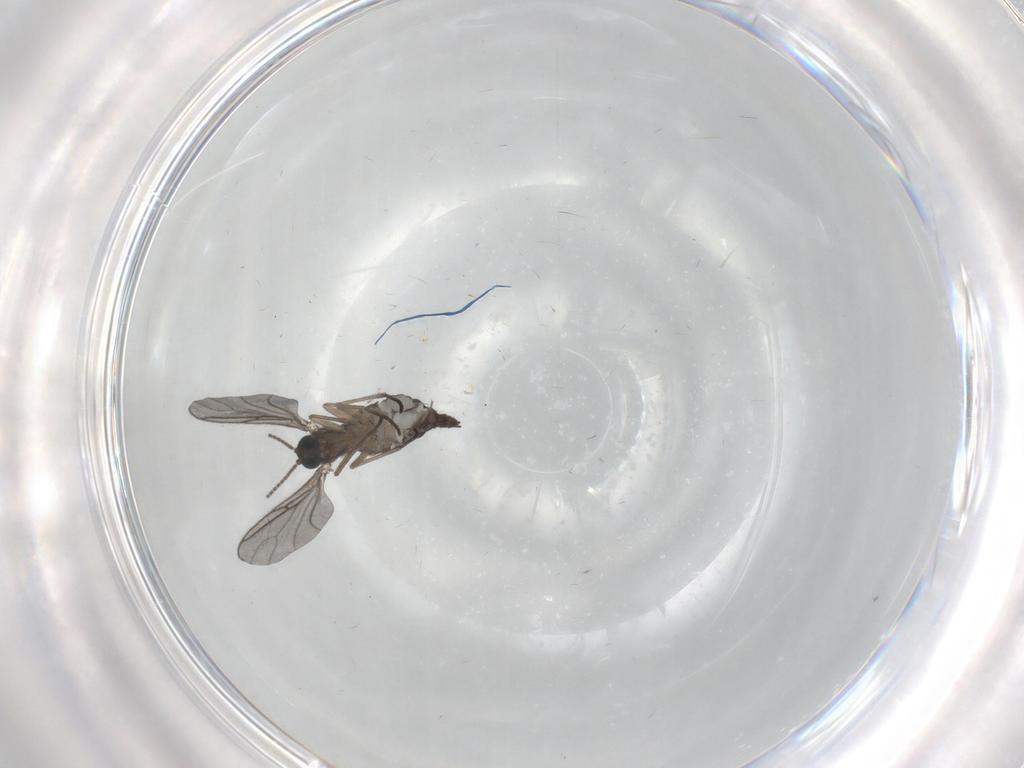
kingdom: Animalia
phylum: Arthropoda
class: Insecta
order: Diptera
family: Sciaridae
